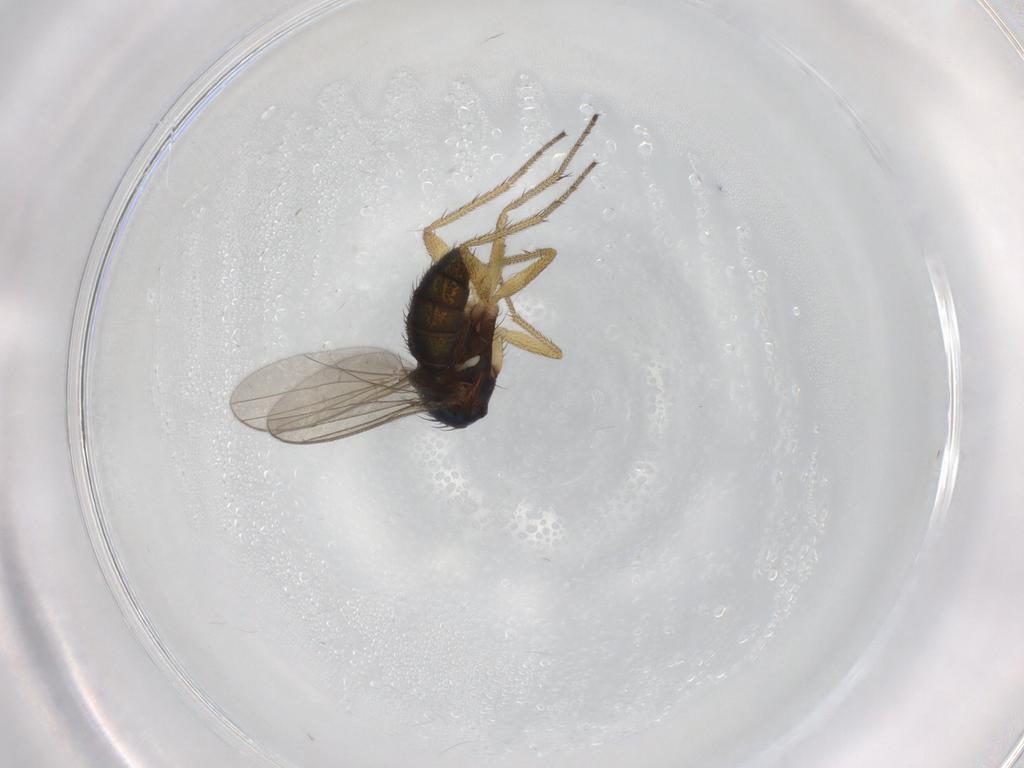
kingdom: Animalia
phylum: Arthropoda
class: Insecta
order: Diptera
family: Dolichopodidae
